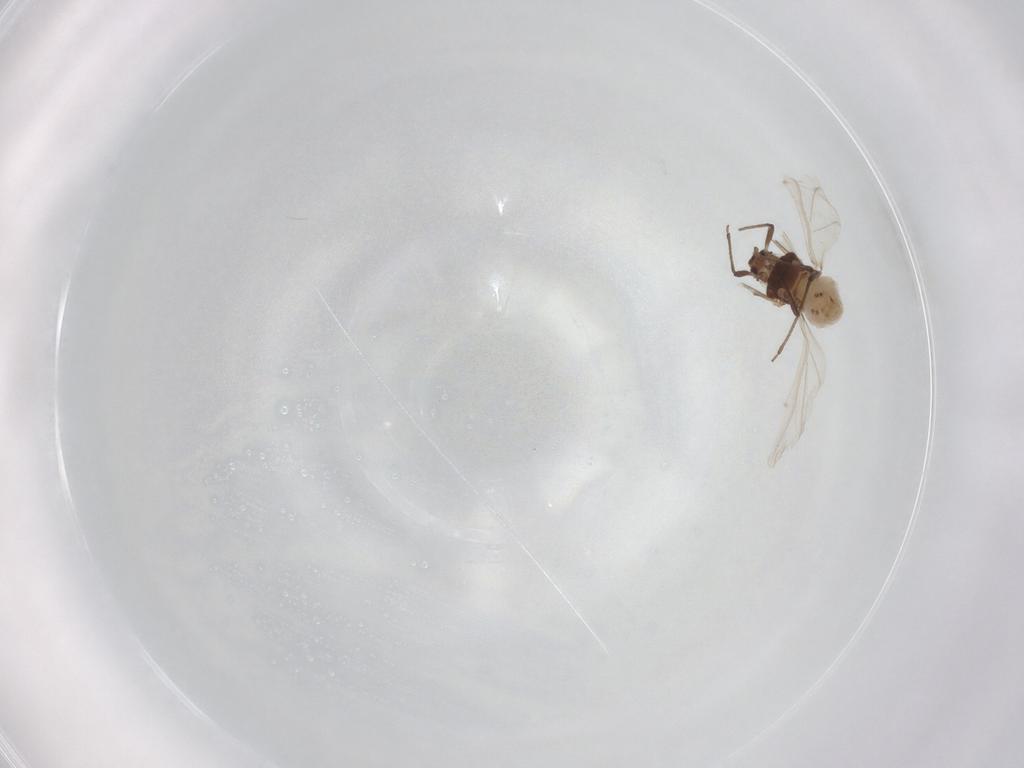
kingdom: Animalia
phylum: Arthropoda
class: Insecta
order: Hemiptera
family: Aphididae
